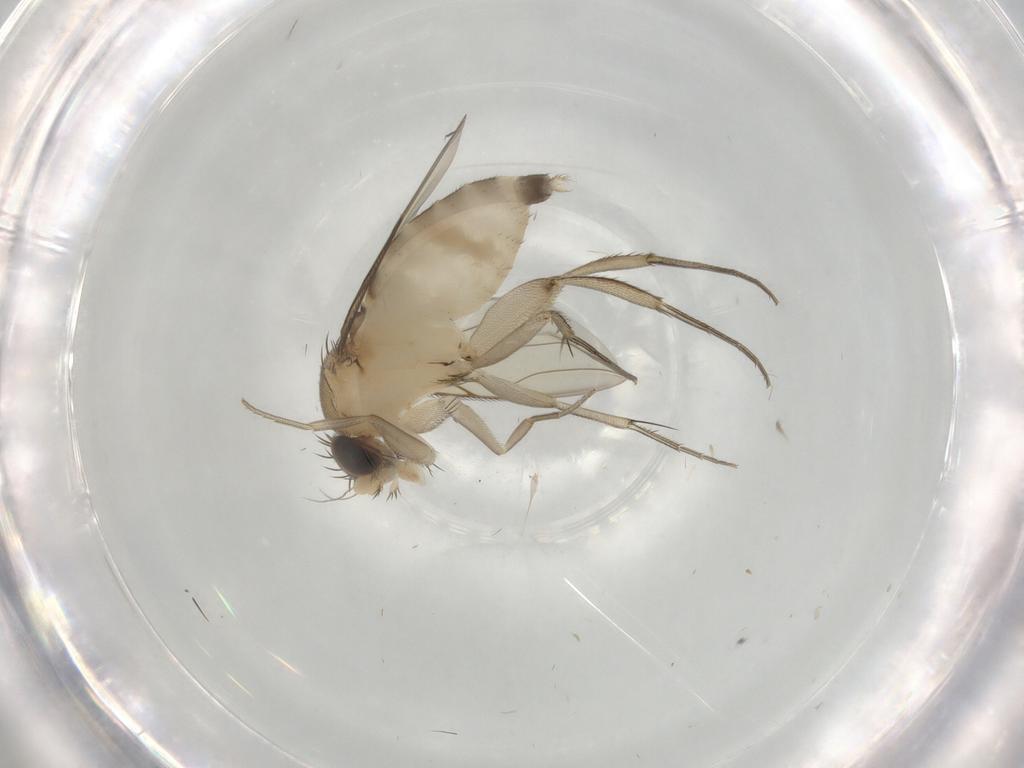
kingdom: Animalia
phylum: Arthropoda
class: Insecta
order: Diptera
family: Phoridae
